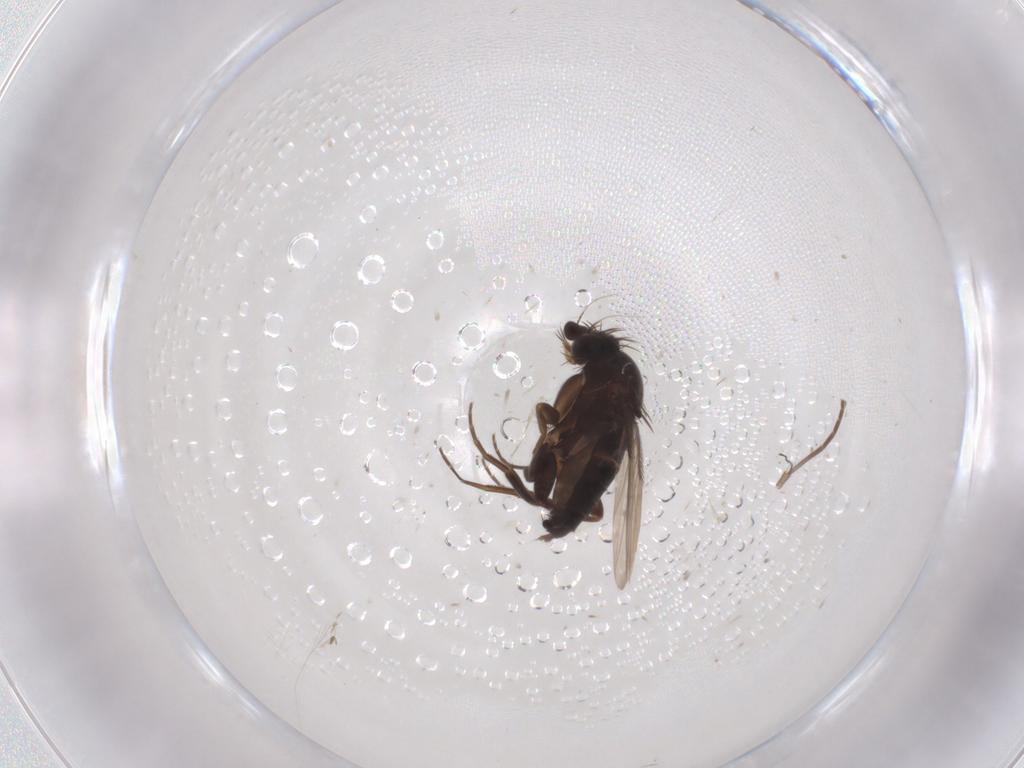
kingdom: Animalia
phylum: Arthropoda
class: Insecta
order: Diptera
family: Phoridae
